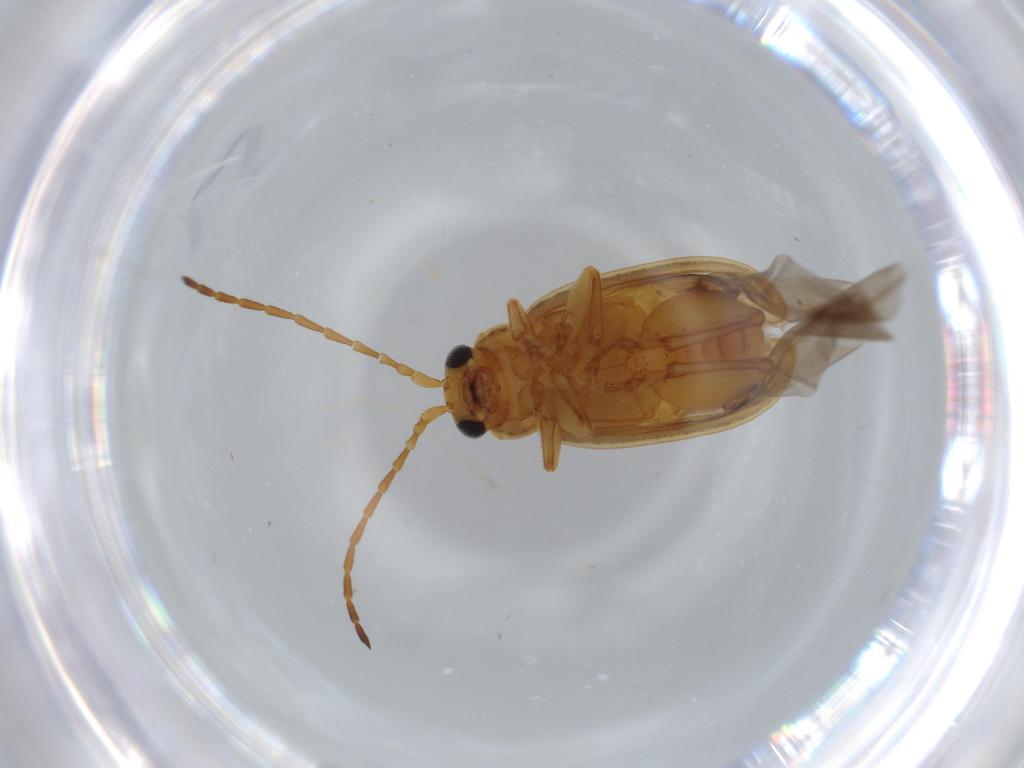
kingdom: Animalia
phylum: Arthropoda
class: Insecta
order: Coleoptera
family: Chrysomelidae
